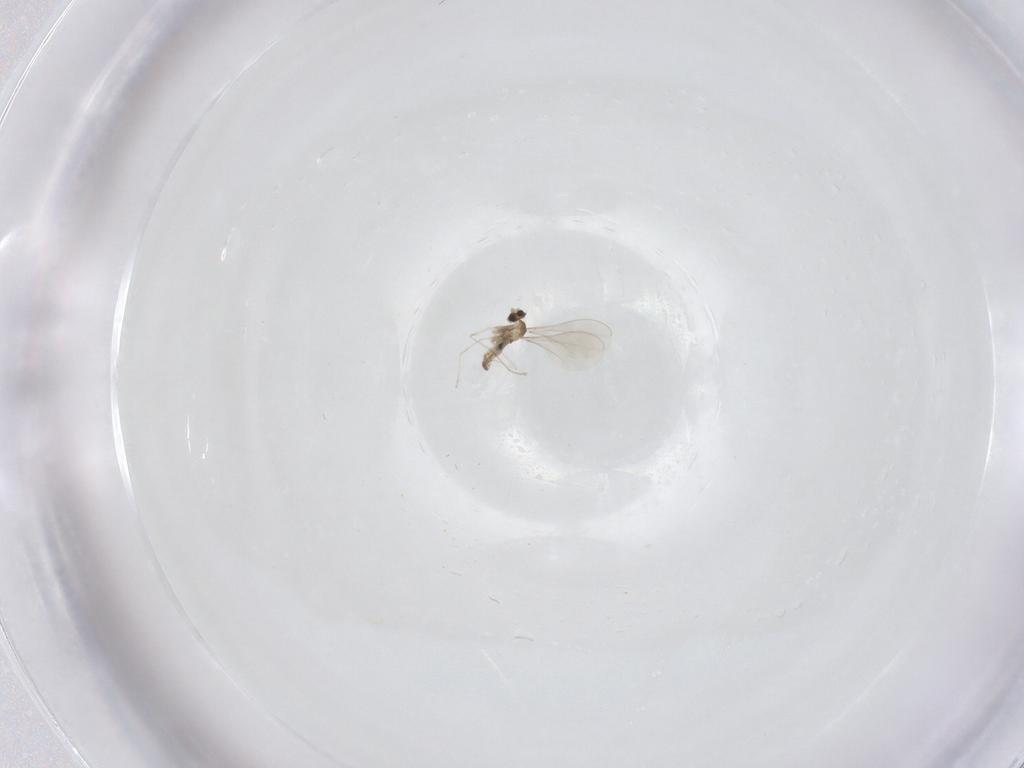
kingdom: Animalia
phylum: Arthropoda
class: Insecta
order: Diptera
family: Cecidomyiidae
